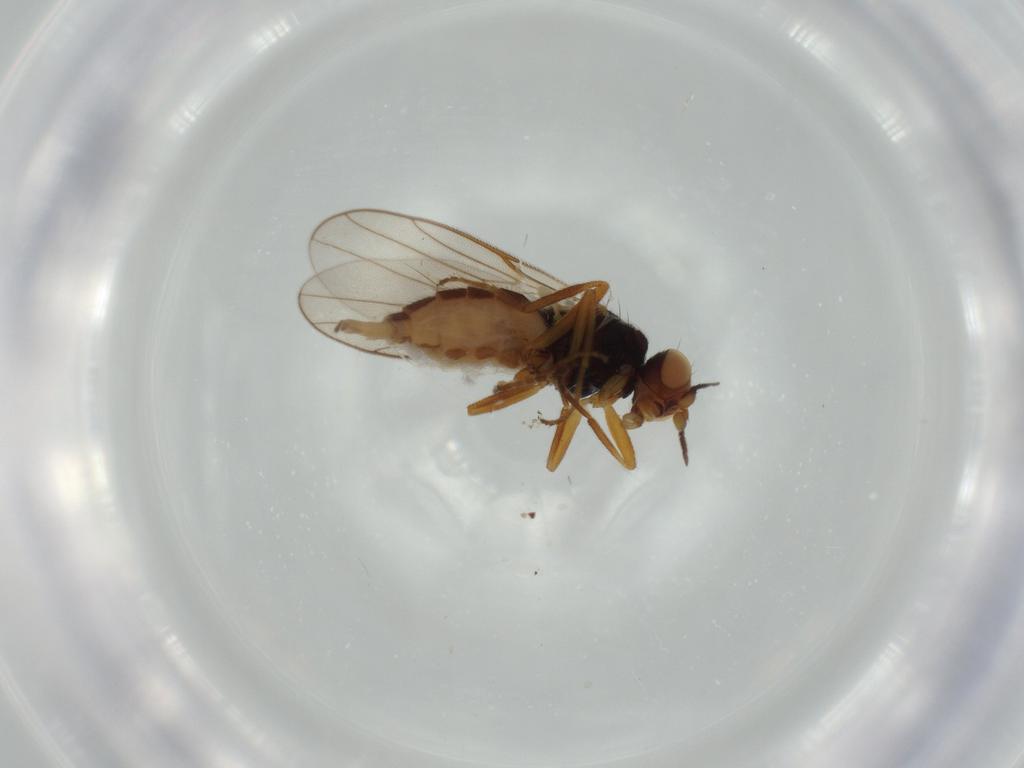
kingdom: Animalia
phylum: Arthropoda
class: Insecta
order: Diptera
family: Chloropidae
